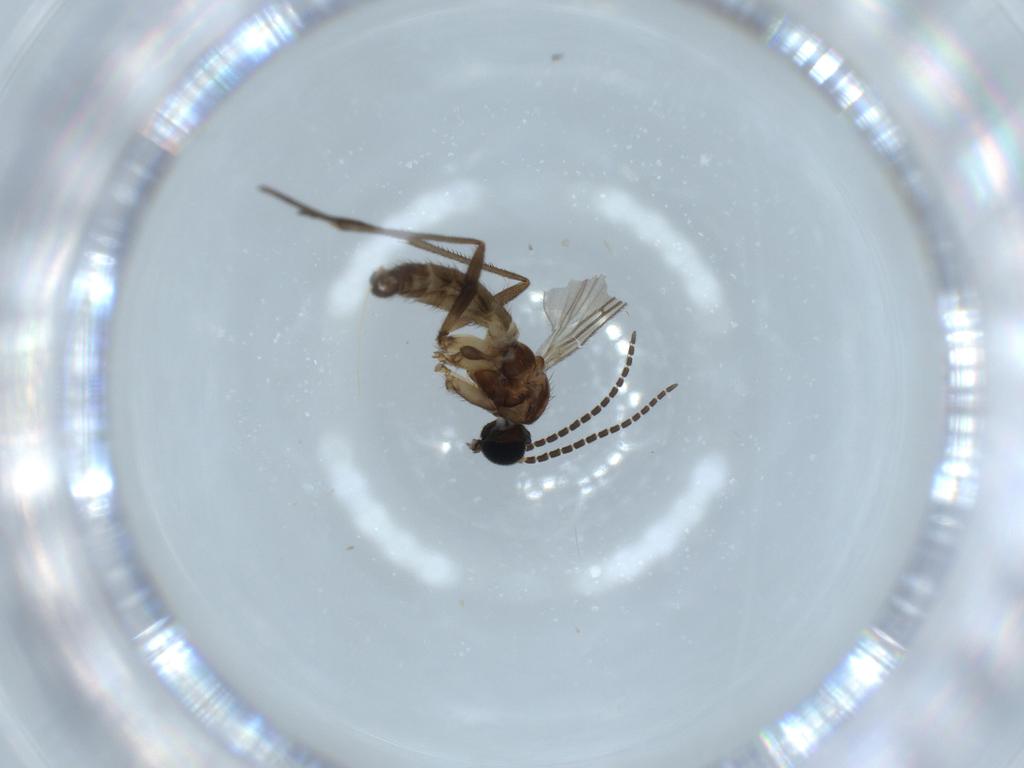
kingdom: Animalia
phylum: Arthropoda
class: Insecta
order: Diptera
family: Sciaridae
